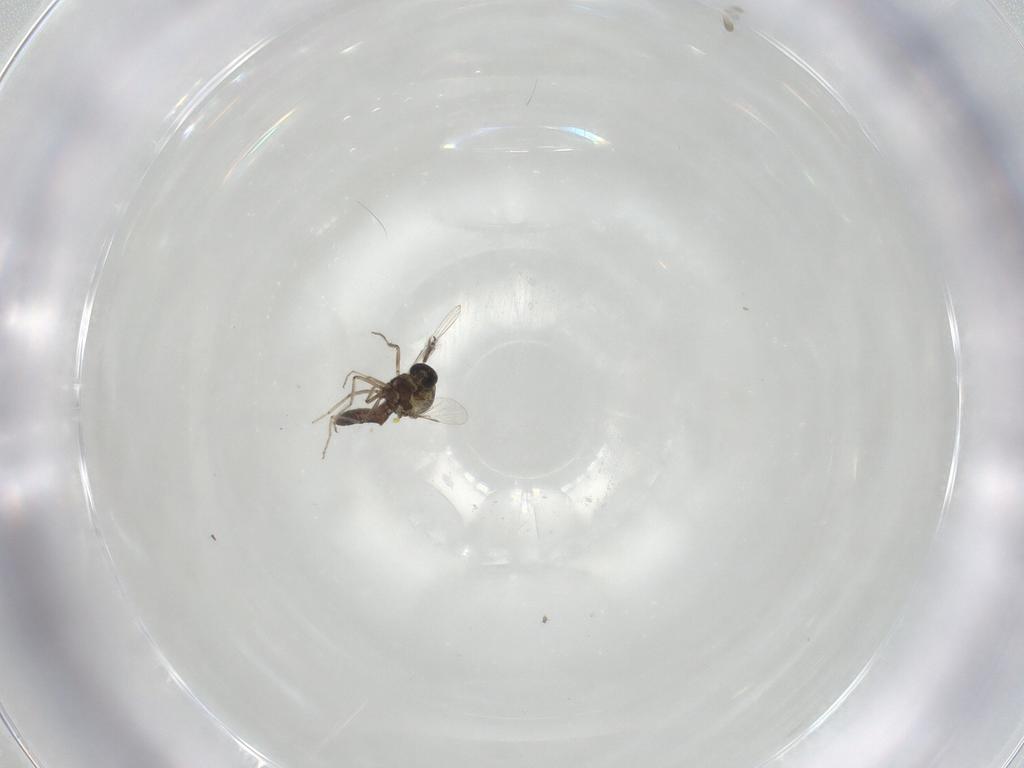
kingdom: Animalia
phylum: Arthropoda
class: Insecta
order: Diptera
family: Ceratopogonidae
